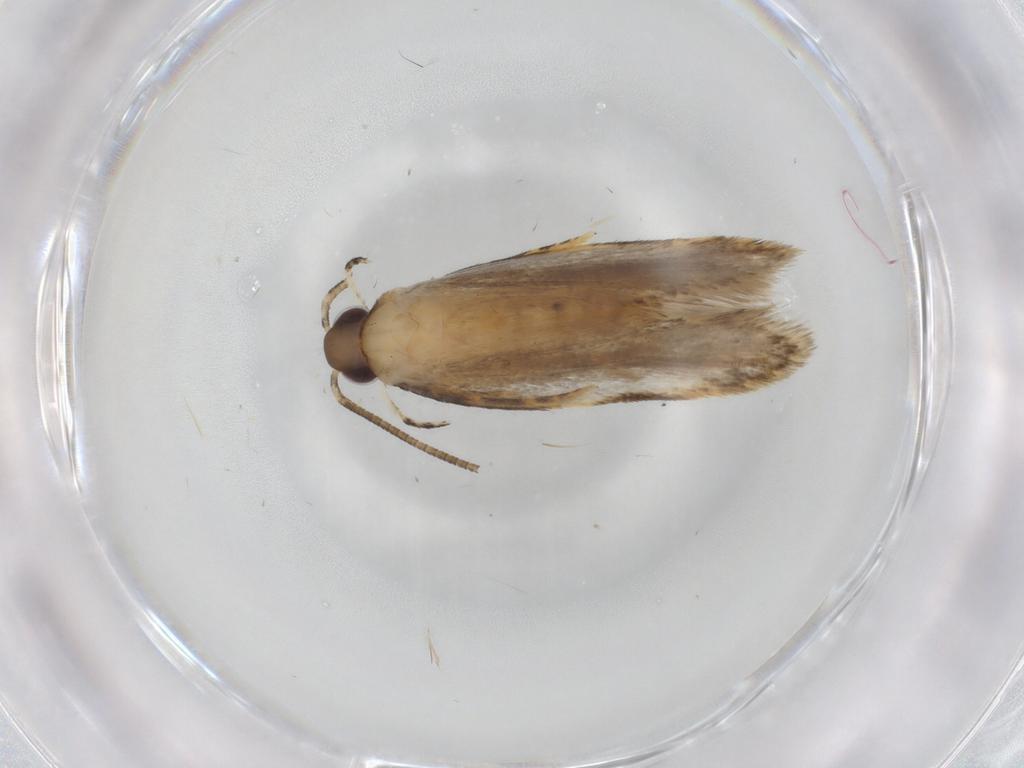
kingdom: Animalia
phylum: Arthropoda
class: Insecta
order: Lepidoptera
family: Autostichidae
